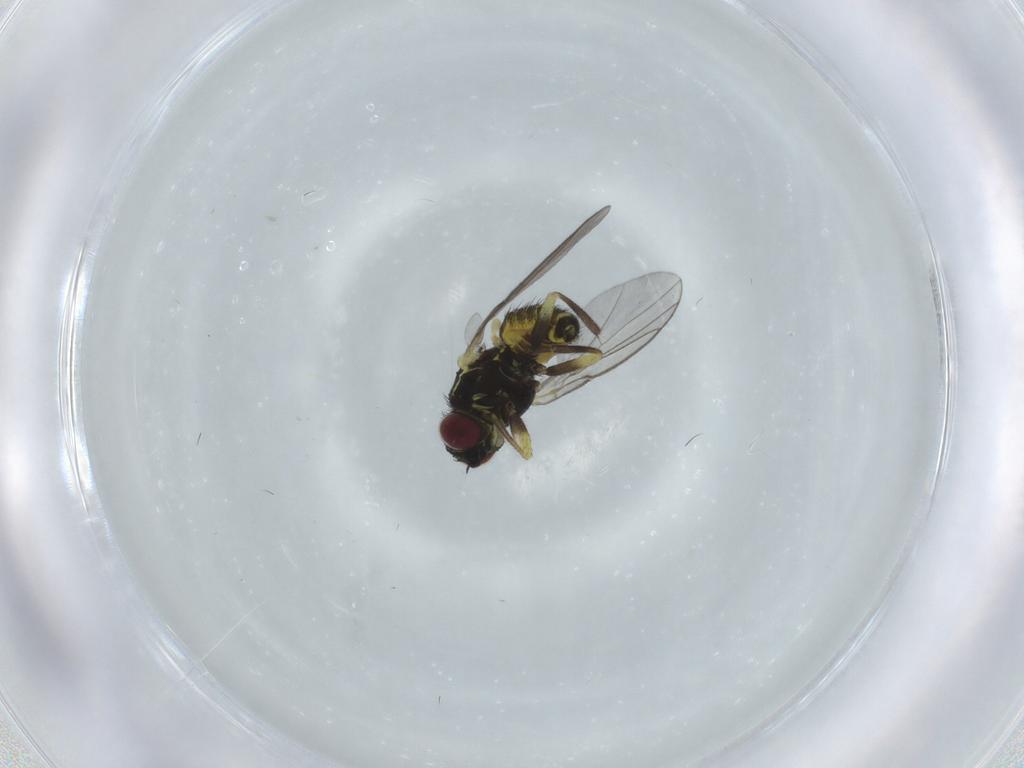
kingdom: Animalia
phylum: Arthropoda
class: Insecta
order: Diptera
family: Agromyzidae
